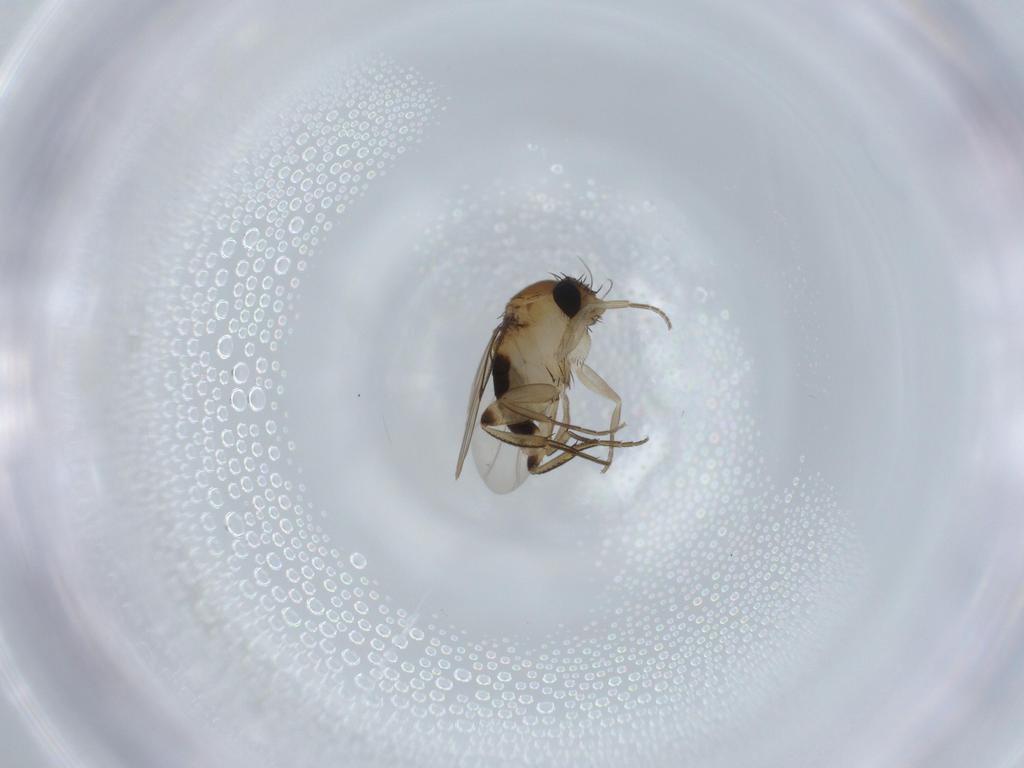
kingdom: Animalia
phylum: Arthropoda
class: Insecta
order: Diptera
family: Phoridae
